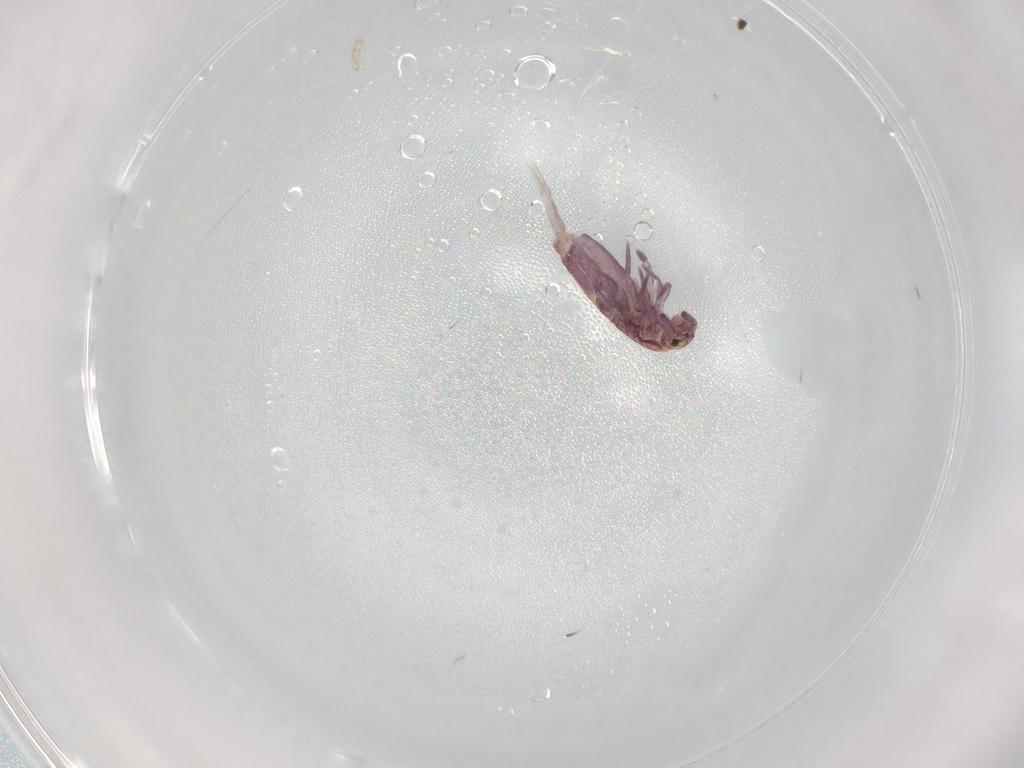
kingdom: Animalia
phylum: Arthropoda
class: Collembola
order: Entomobryomorpha
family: Entomobryidae
